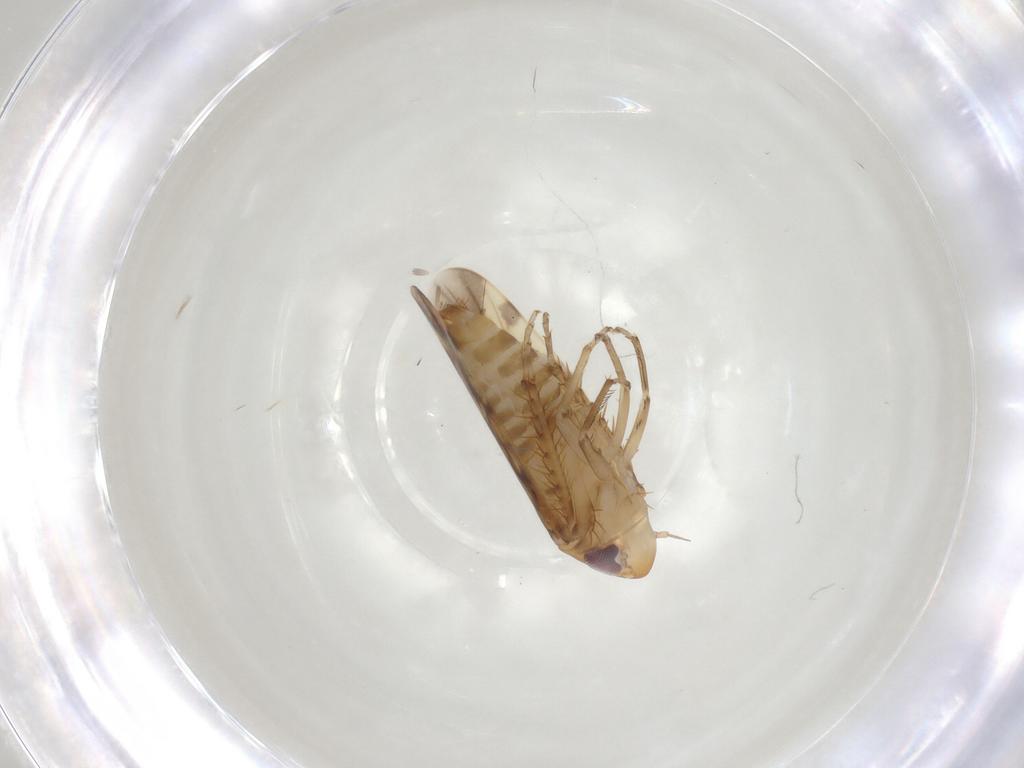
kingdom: Animalia
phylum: Arthropoda
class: Insecta
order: Hemiptera
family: Cicadellidae
